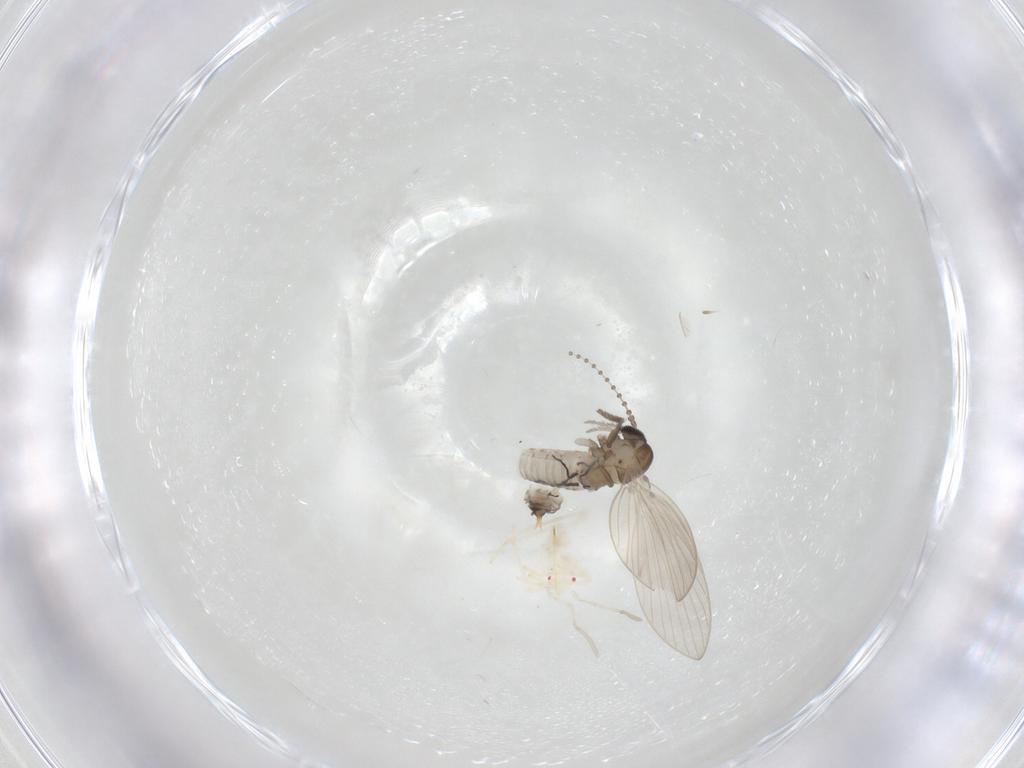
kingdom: Animalia
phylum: Arthropoda
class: Insecta
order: Diptera
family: Psychodidae
